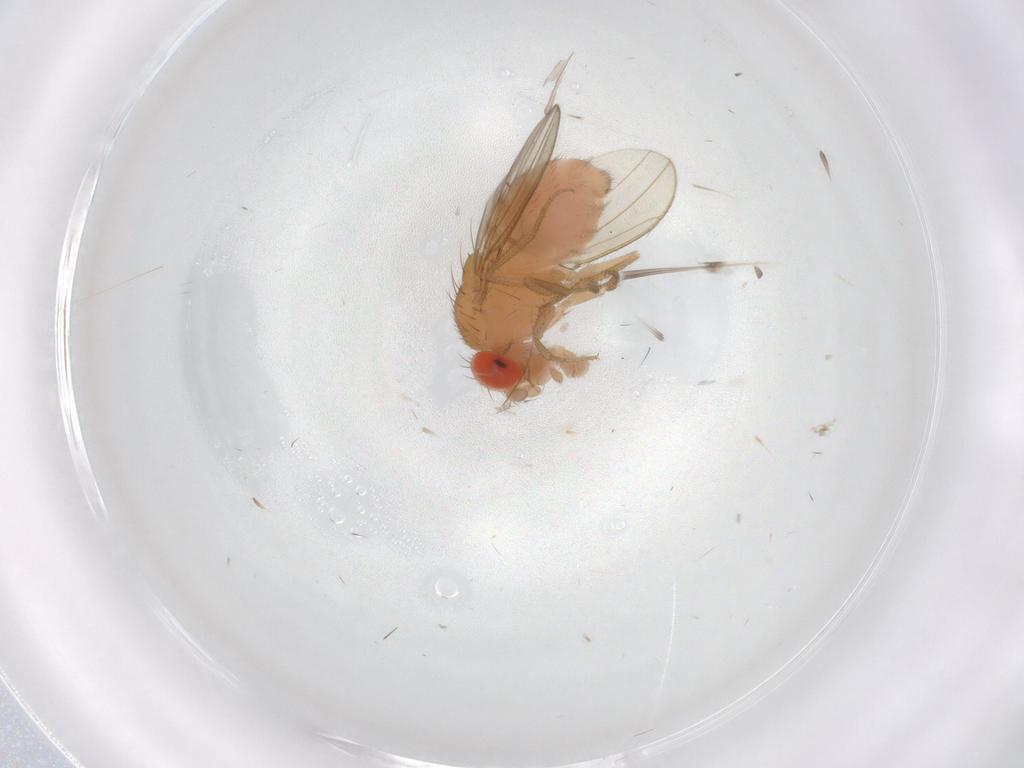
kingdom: Animalia
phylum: Arthropoda
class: Insecta
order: Diptera
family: Drosophilidae
